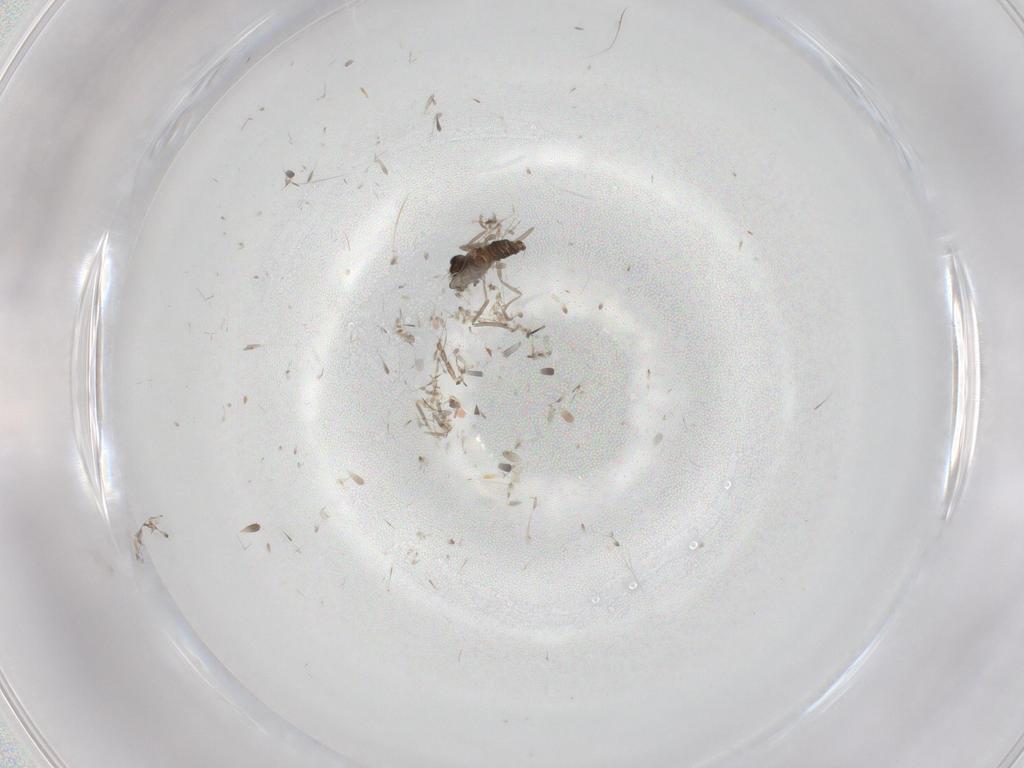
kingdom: Animalia
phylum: Arthropoda
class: Insecta
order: Diptera
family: Cecidomyiidae
